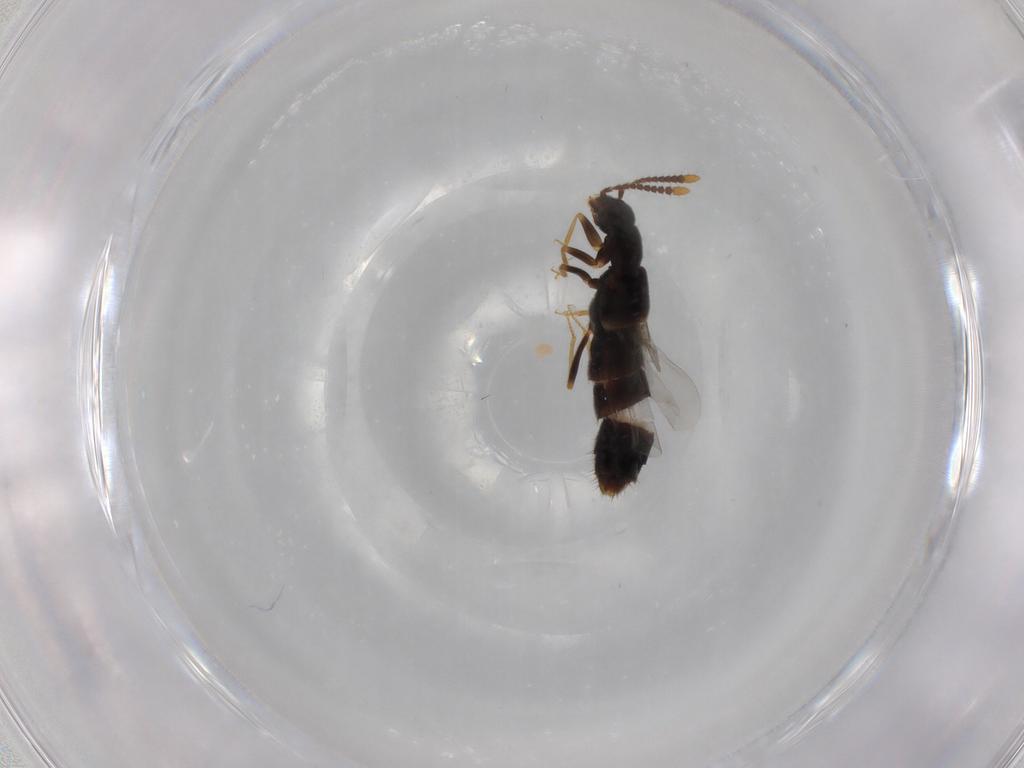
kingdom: Animalia
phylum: Arthropoda
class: Insecta
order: Coleoptera
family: Staphylinidae
